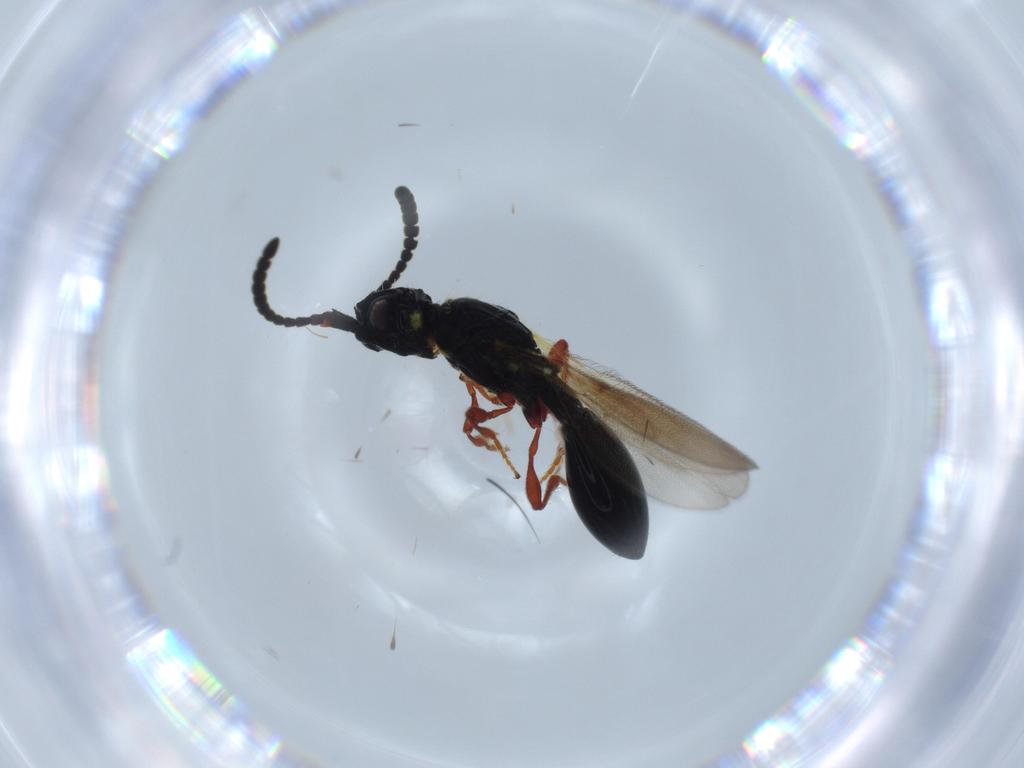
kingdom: Animalia
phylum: Arthropoda
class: Insecta
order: Hymenoptera
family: Diapriidae
